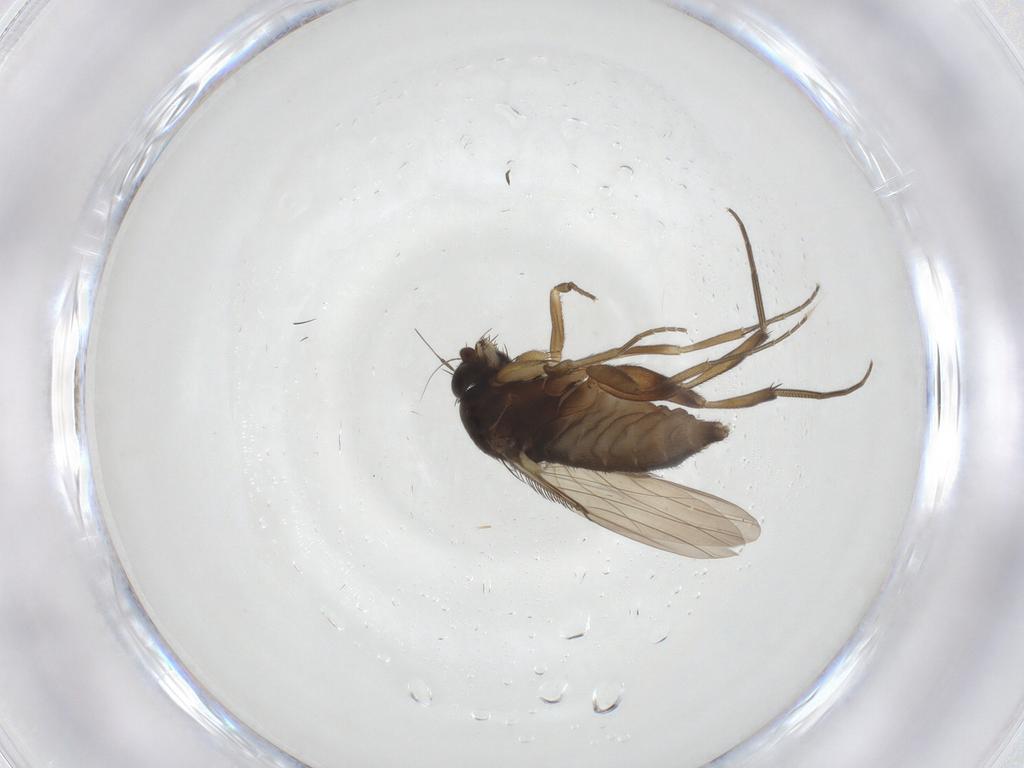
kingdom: Animalia
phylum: Arthropoda
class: Insecta
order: Diptera
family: Phoridae
